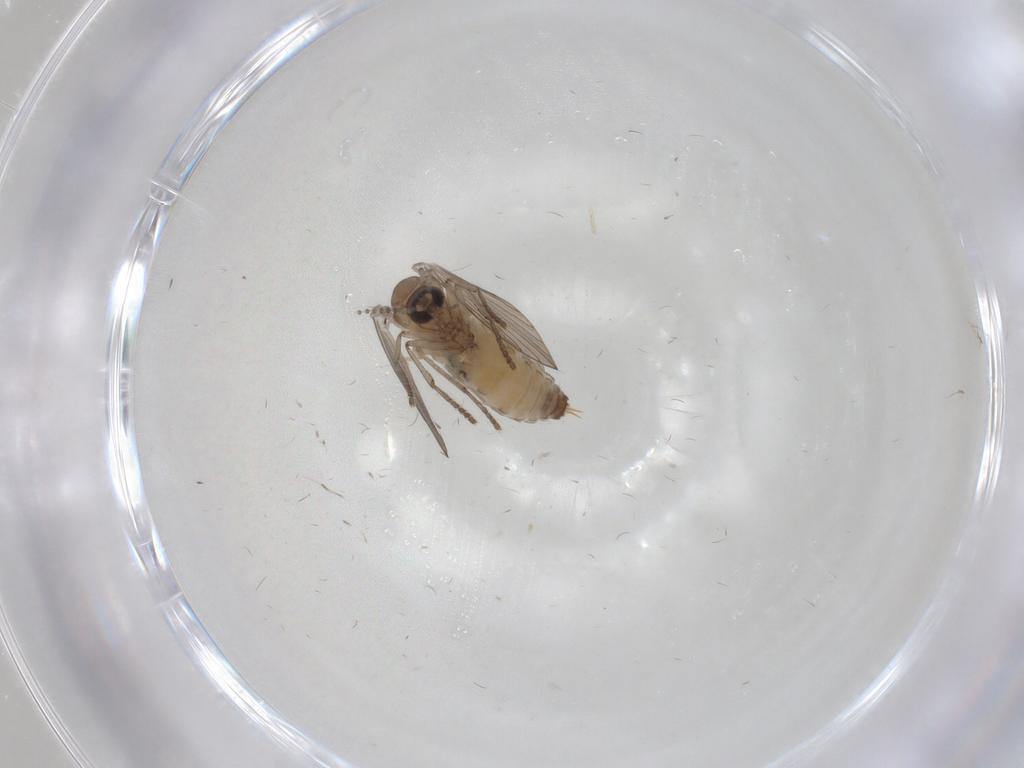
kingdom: Animalia
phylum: Arthropoda
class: Insecta
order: Diptera
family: Psychodidae
